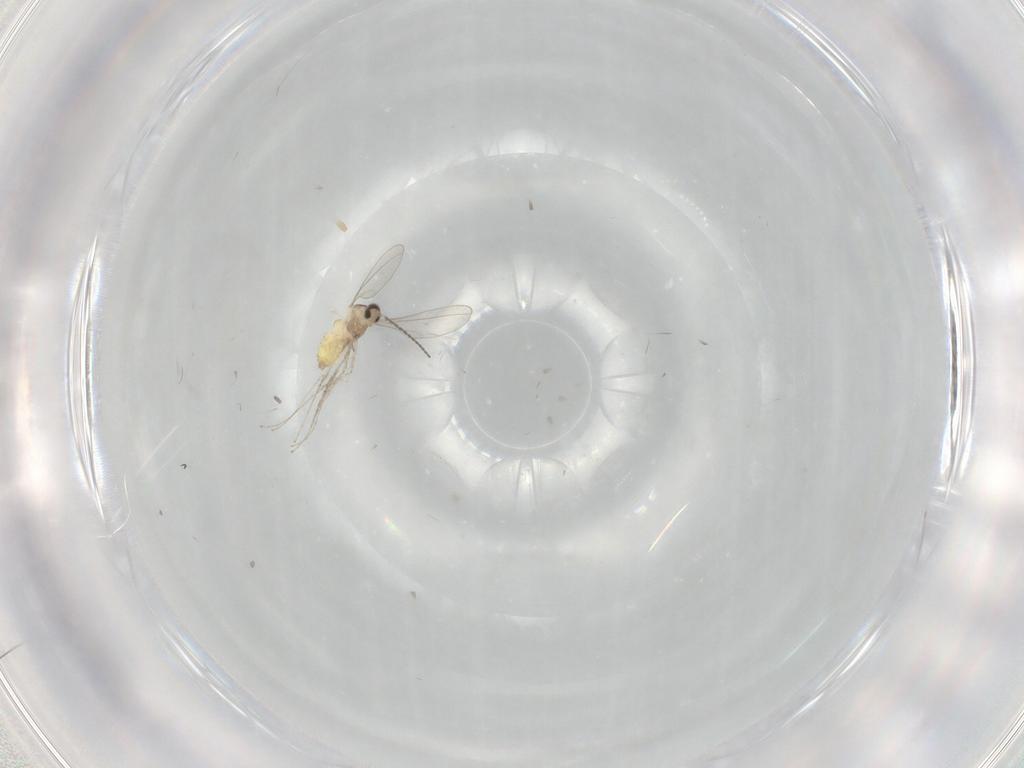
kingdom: Animalia
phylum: Arthropoda
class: Insecta
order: Diptera
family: Cecidomyiidae
